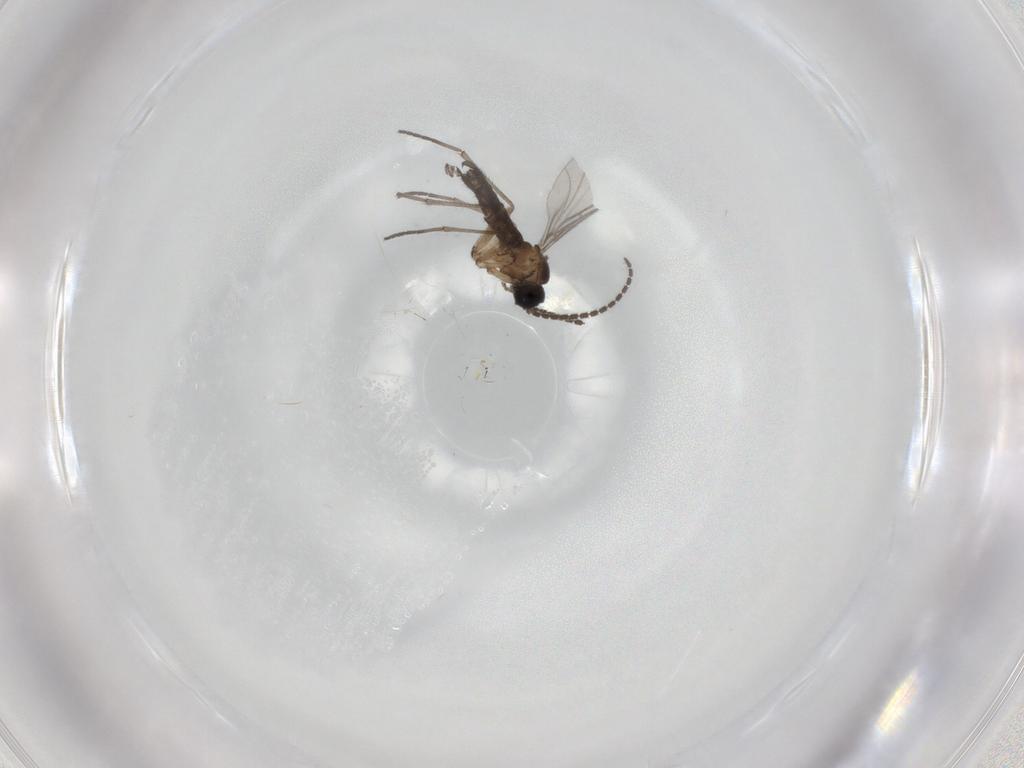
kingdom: Animalia
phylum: Arthropoda
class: Insecta
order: Diptera
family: Sciaridae
